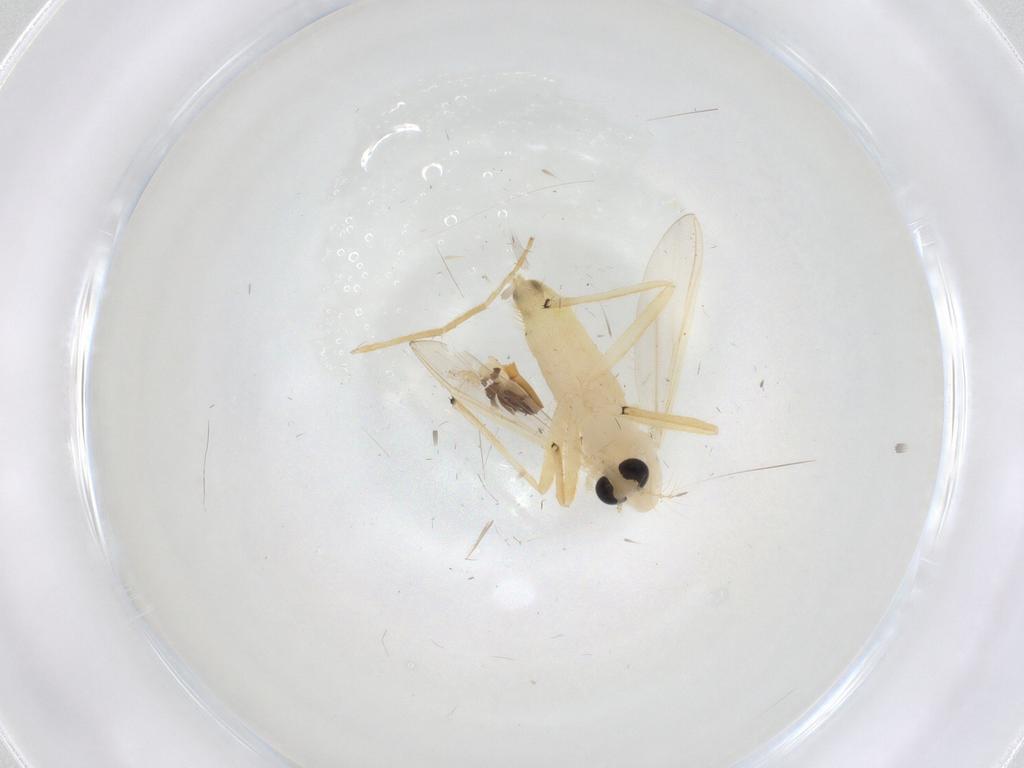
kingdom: Animalia
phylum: Arthropoda
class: Insecta
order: Diptera
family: Chironomidae
